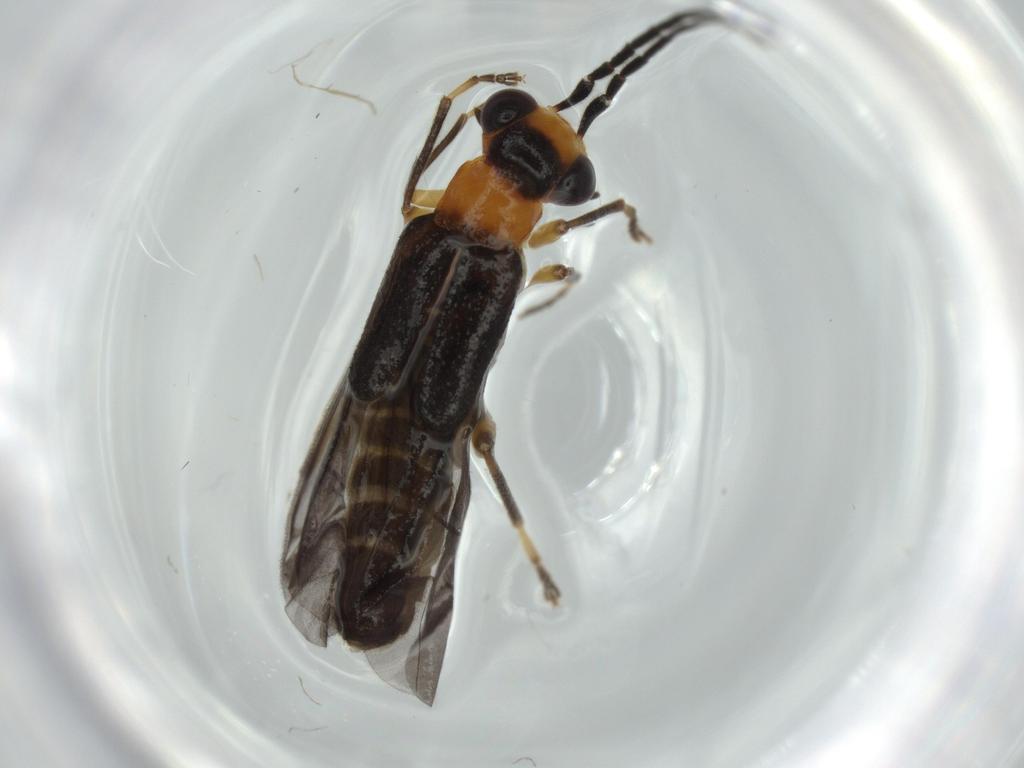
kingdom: Animalia
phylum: Arthropoda
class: Insecta
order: Coleoptera
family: Cantharidae
